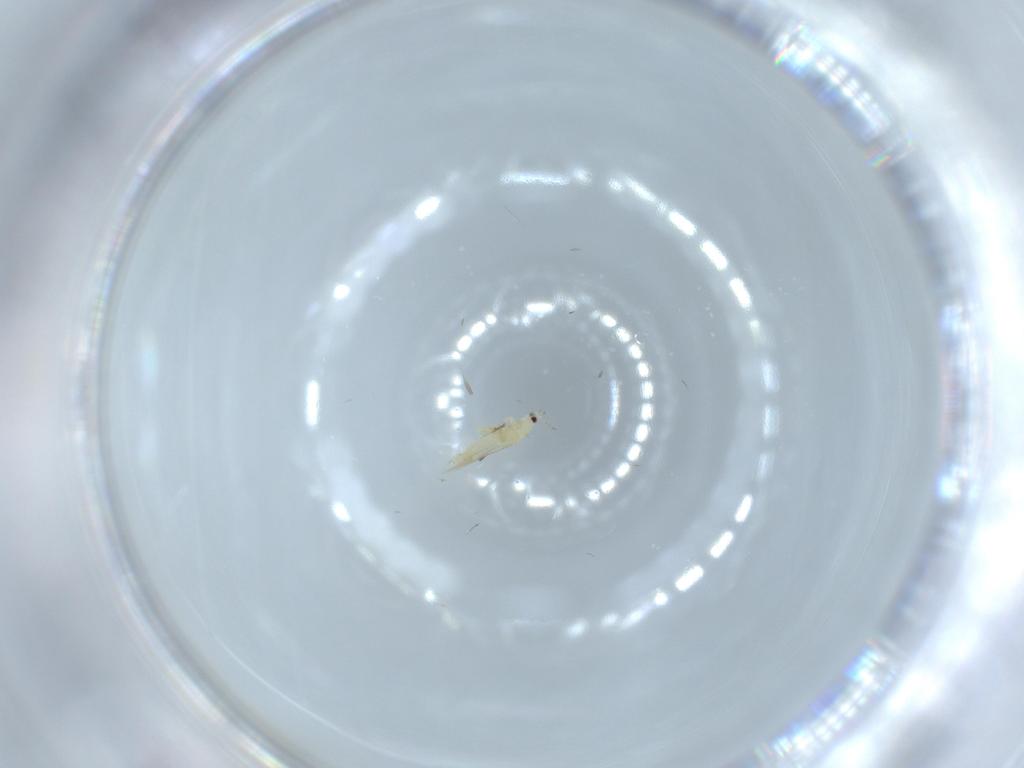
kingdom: Animalia
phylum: Arthropoda
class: Insecta
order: Thysanoptera
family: Thripidae
